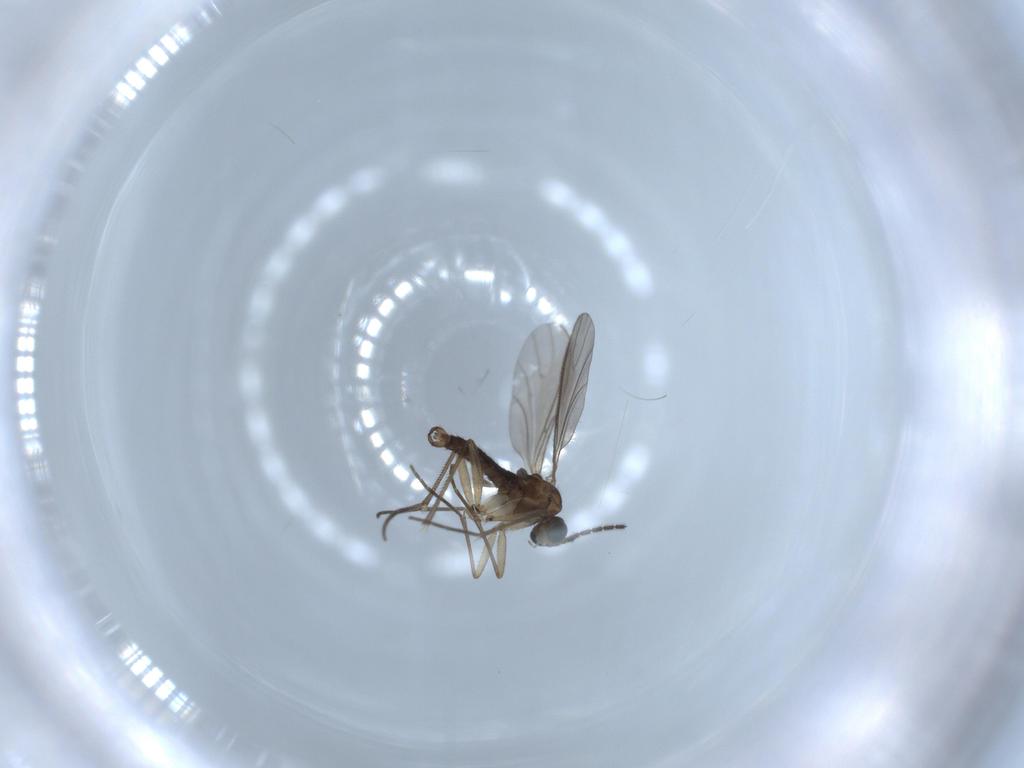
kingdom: Animalia
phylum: Arthropoda
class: Insecta
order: Diptera
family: Sciaridae
